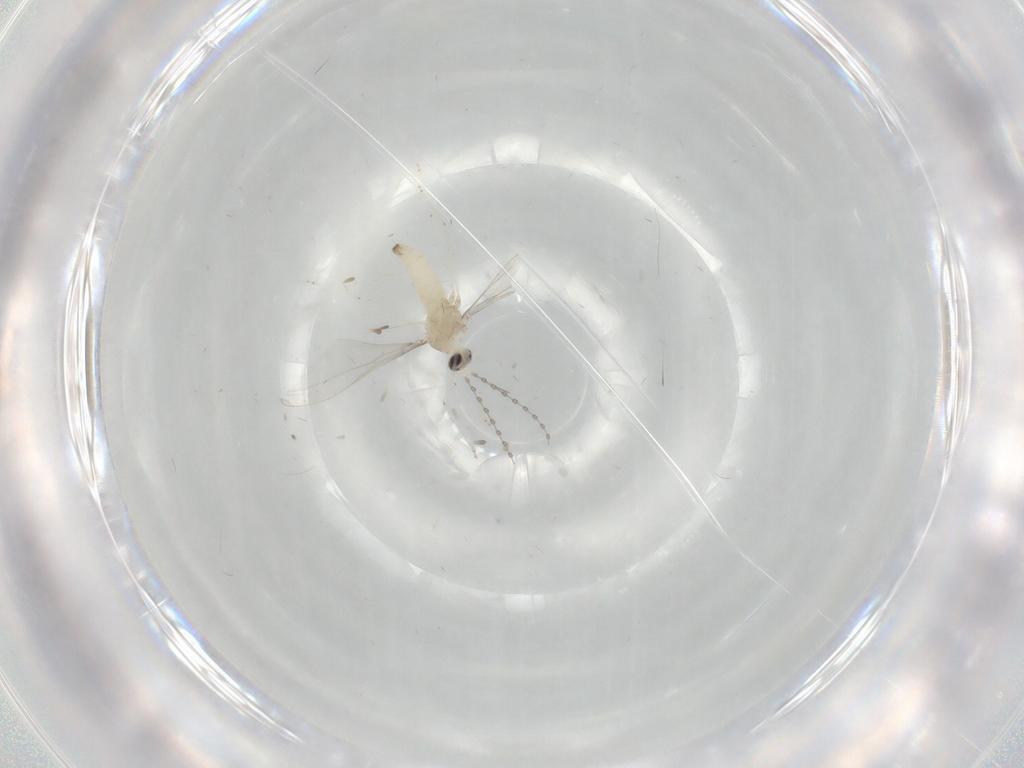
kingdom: Animalia
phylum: Arthropoda
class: Insecta
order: Diptera
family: Cecidomyiidae
